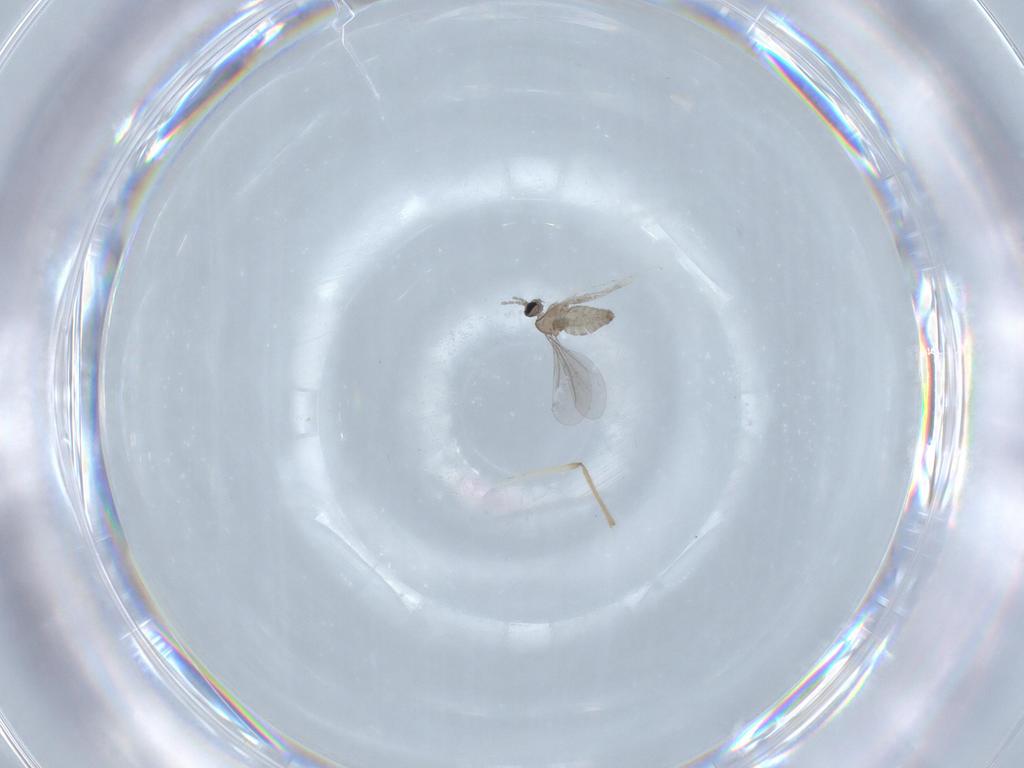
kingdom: Animalia
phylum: Arthropoda
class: Insecta
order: Diptera
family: Cecidomyiidae
